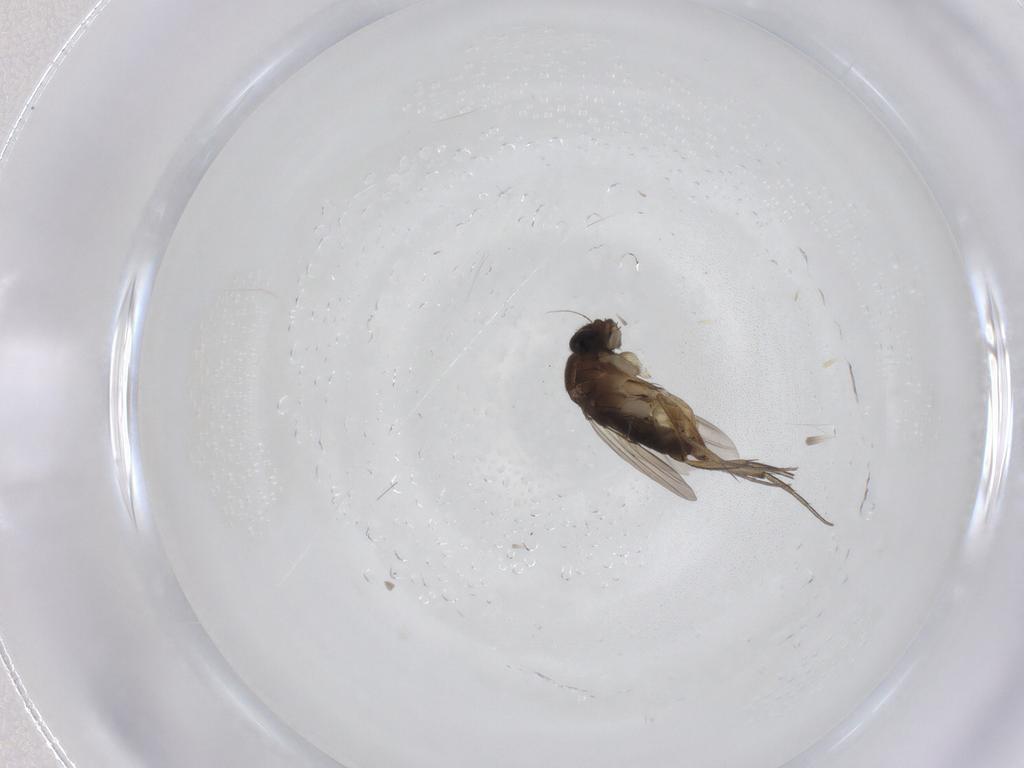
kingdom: Animalia
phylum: Arthropoda
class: Insecta
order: Diptera
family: Phoridae
